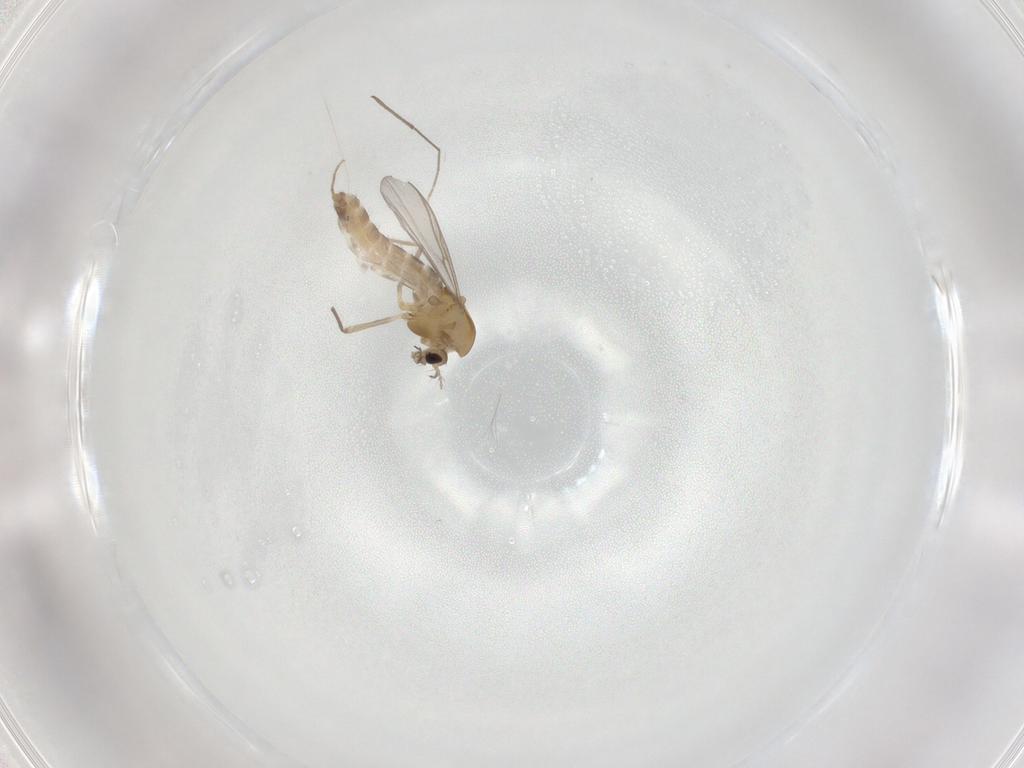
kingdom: Animalia
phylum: Arthropoda
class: Insecta
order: Diptera
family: Chironomidae
